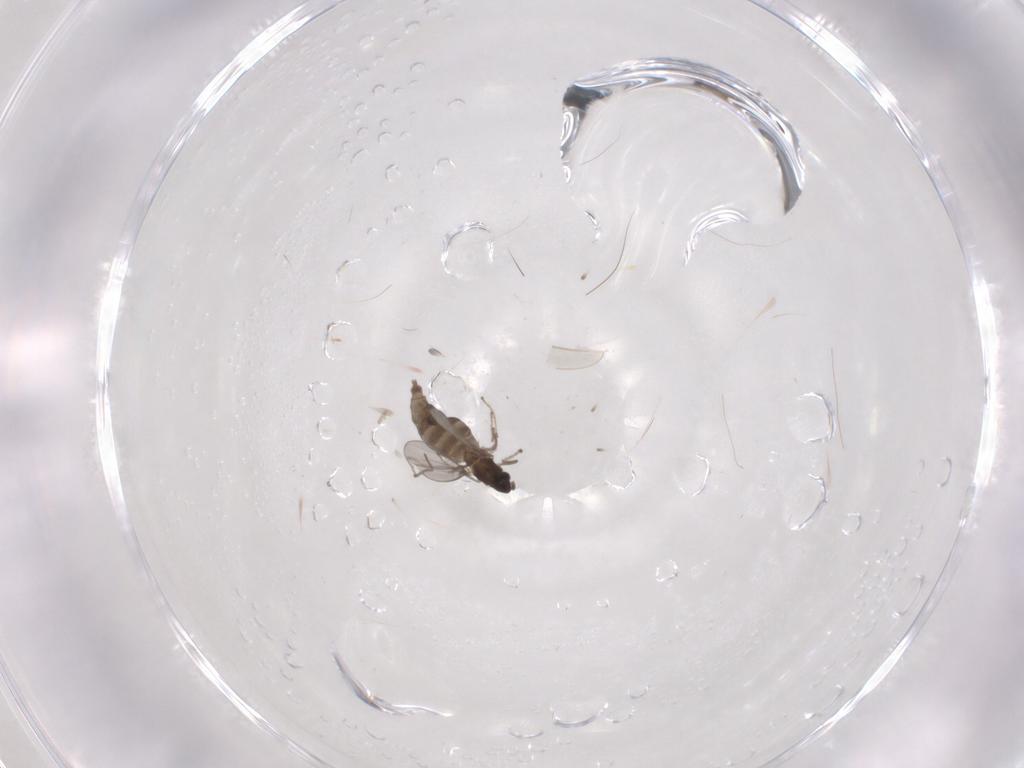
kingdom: Animalia
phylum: Arthropoda
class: Insecta
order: Diptera
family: Cecidomyiidae
